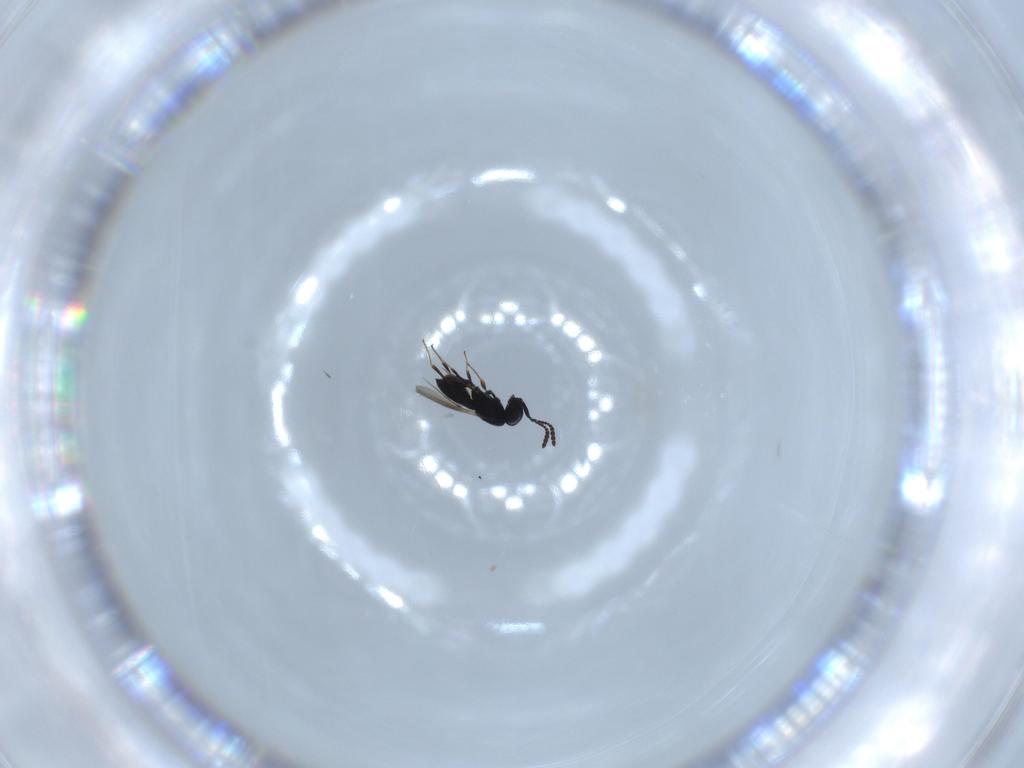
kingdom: Animalia
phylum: Arthropoda
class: Insecta
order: Hymenoptera
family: Scelionidae
